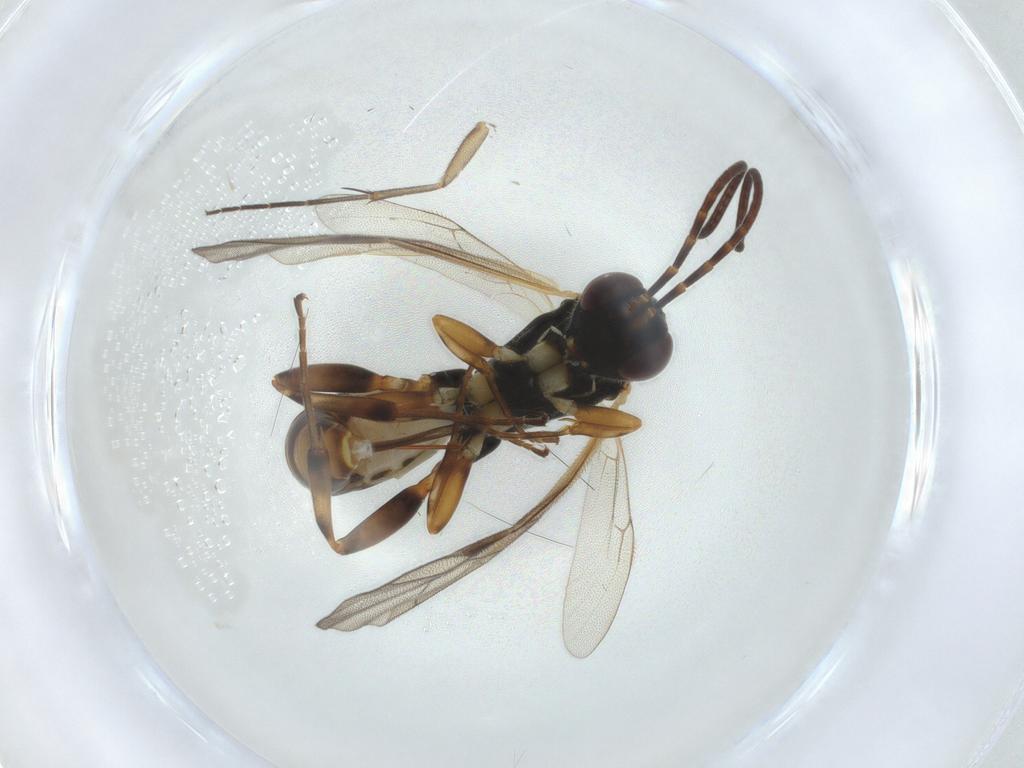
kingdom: Animalia
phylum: Arthropoda
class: Insecta
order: Hymenoptera
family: Ichneumonidae
